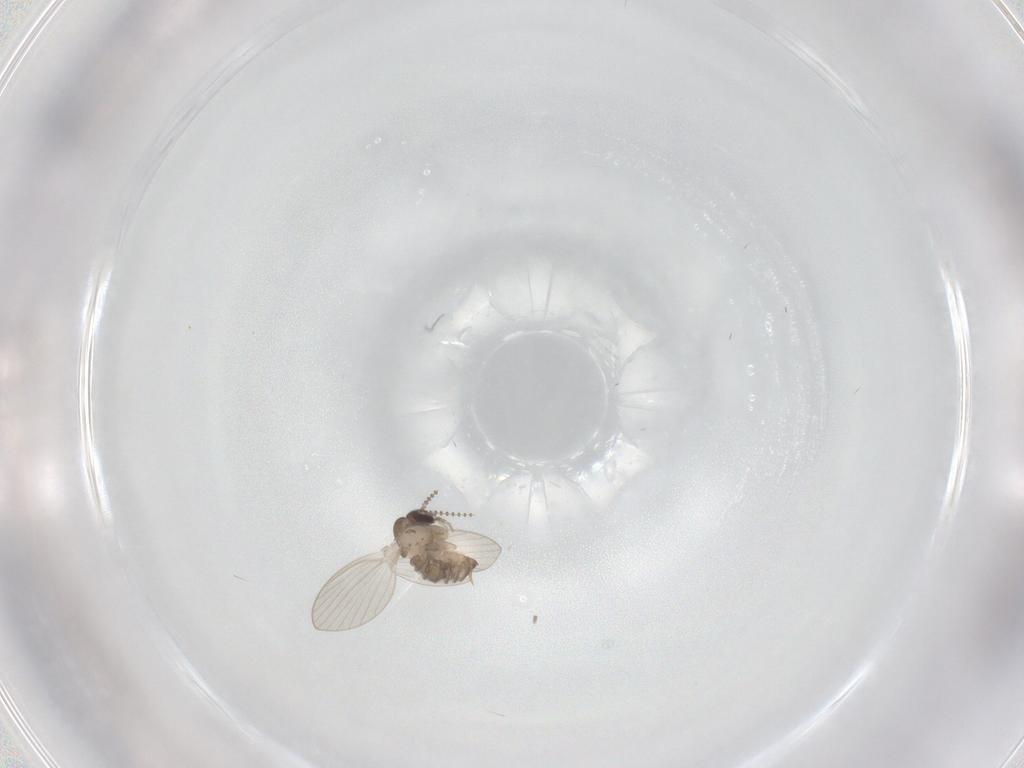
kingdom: Animalia
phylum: Arthropoda
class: Insecta
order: Diptera
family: Psychodidae
